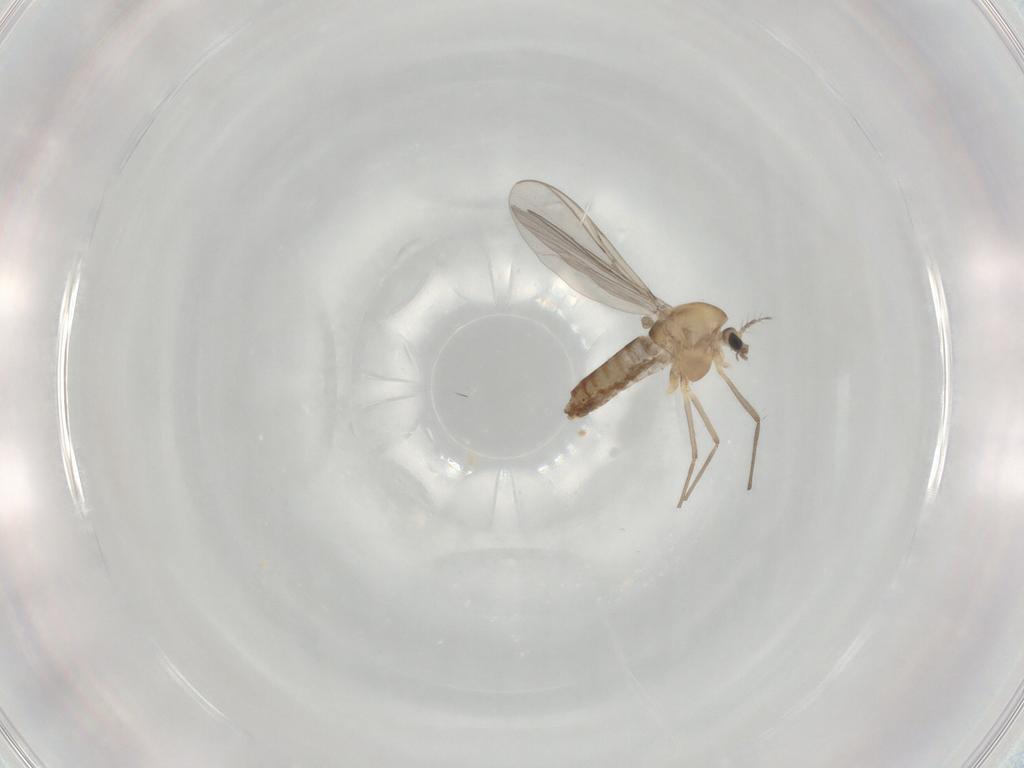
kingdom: Animalia
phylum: Arthropoda
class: Insecta
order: Diptera
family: Chironomidae
